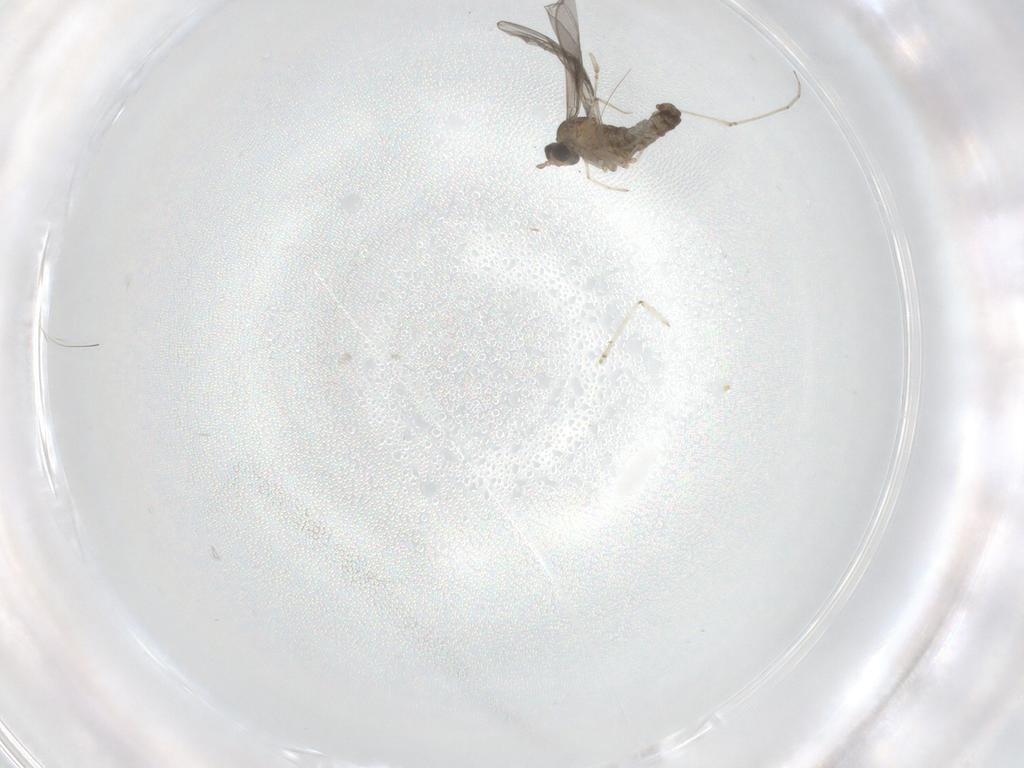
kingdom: Animalia
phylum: Arthropoda
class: Insecta
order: Diptera
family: Cecidomyiidae
